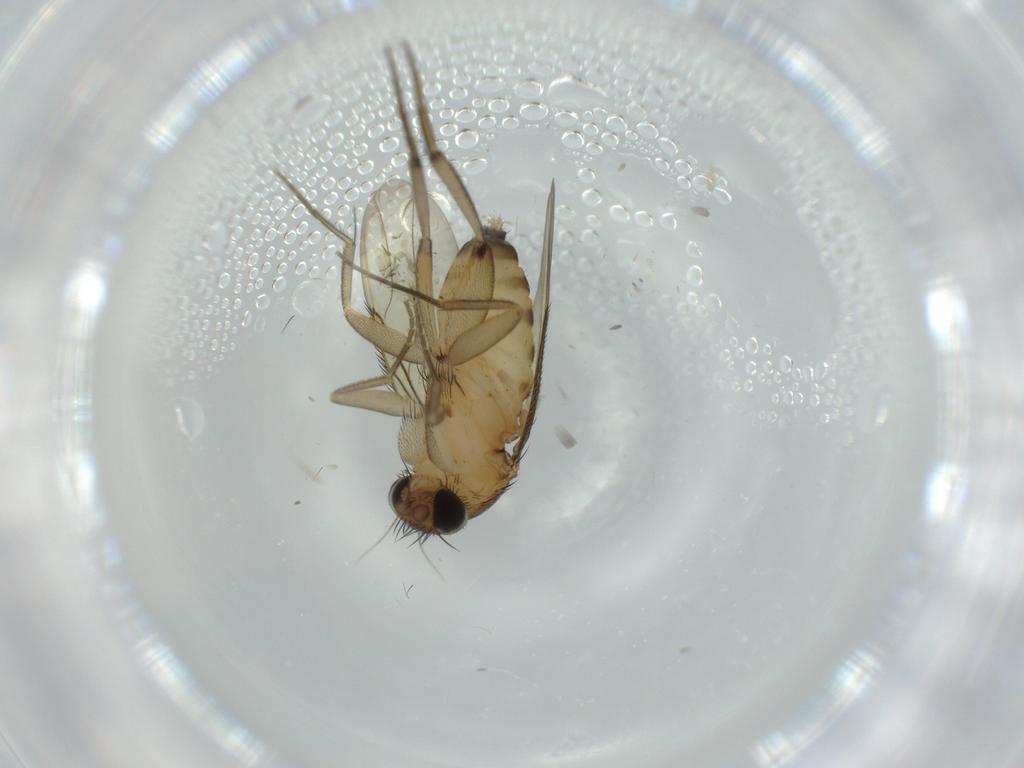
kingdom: Animalia
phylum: Arthropoda
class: Insecta
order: Diptera
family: Phoridae
